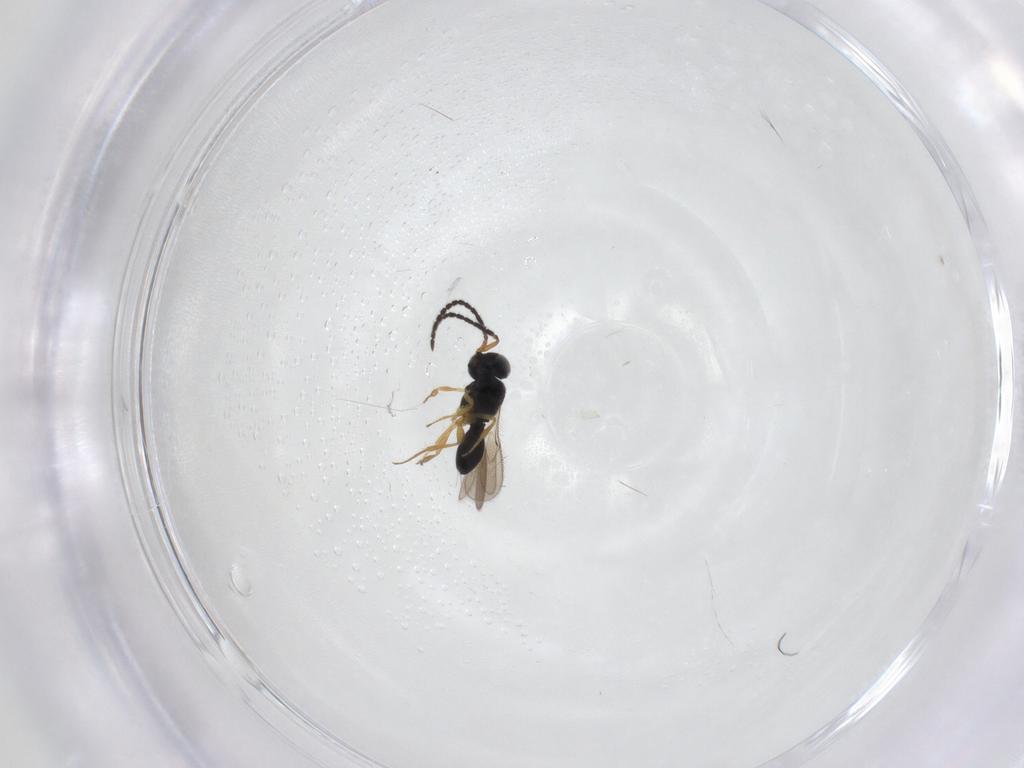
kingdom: Animalia
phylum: Arthropoda
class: Insecta
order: Hymenoptera
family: Scelionidae
